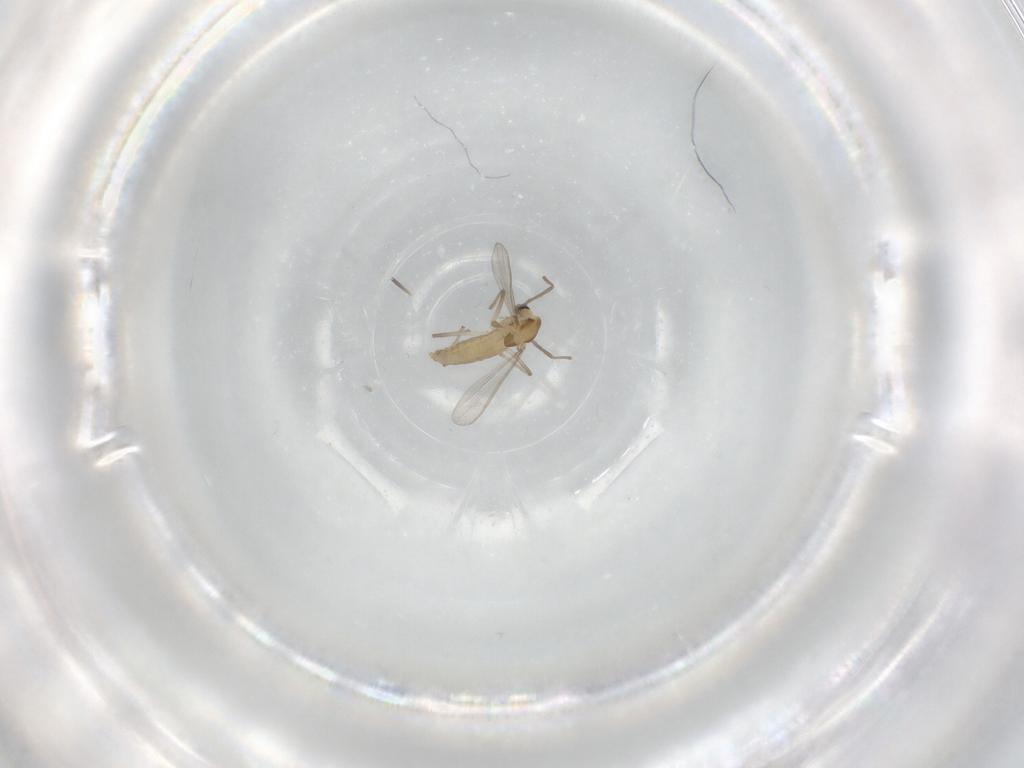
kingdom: Animalia
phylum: Arthropoda
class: Insecta
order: Diptera
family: Chironomidae
